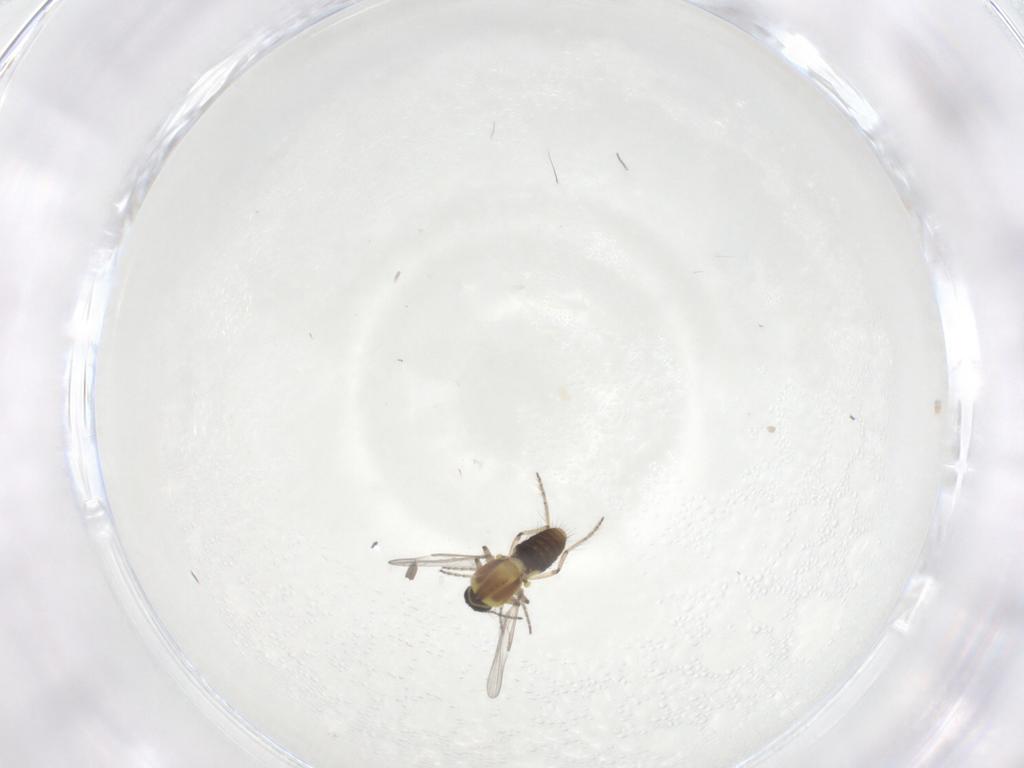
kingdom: Animalia
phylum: Arthropoda
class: Insecta
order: Diptera
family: Ceratopogonidae
